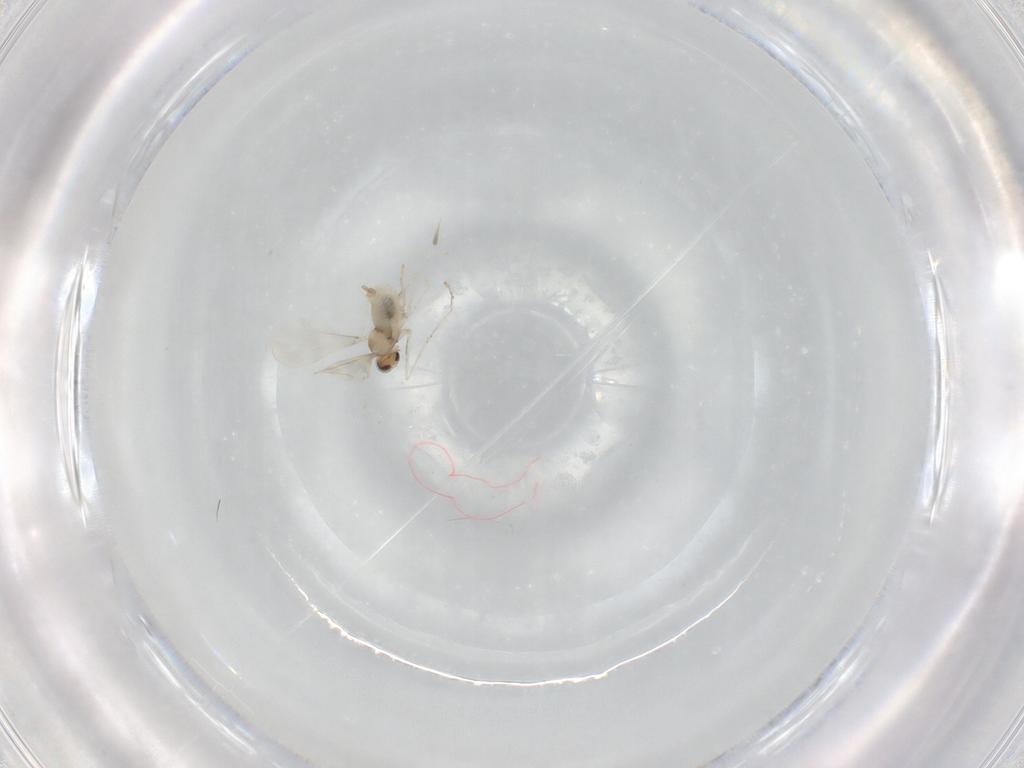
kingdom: Animalia
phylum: Arthropoda
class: Insecta
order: Diptera
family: Cecidomyiidae
